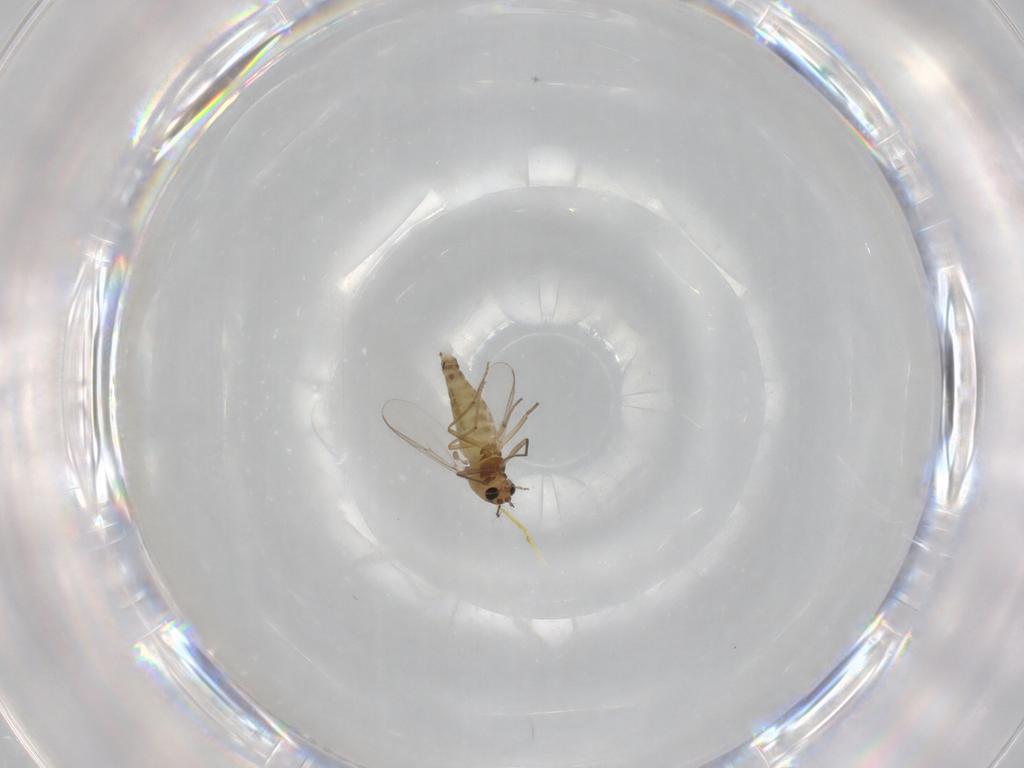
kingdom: Animalia
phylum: Arthropoda
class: Insecta
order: Diptera
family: Chironomidae
